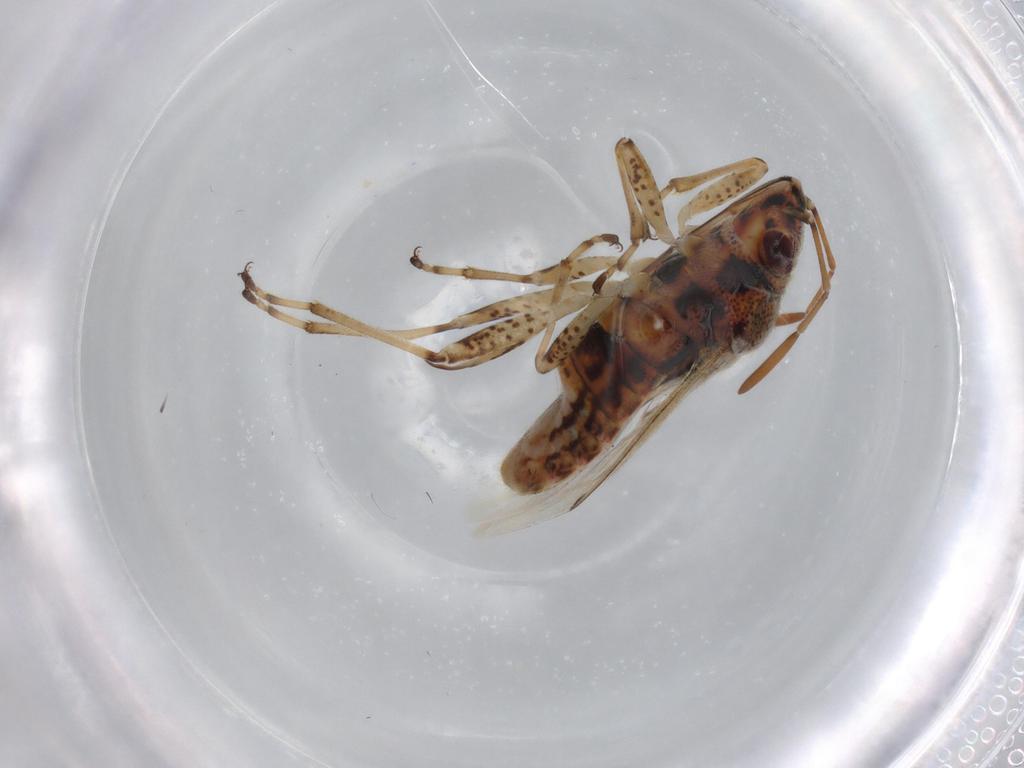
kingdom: Animalia
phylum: Arthropoda
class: Insecta
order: Hemiptera
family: Lygaeidae
